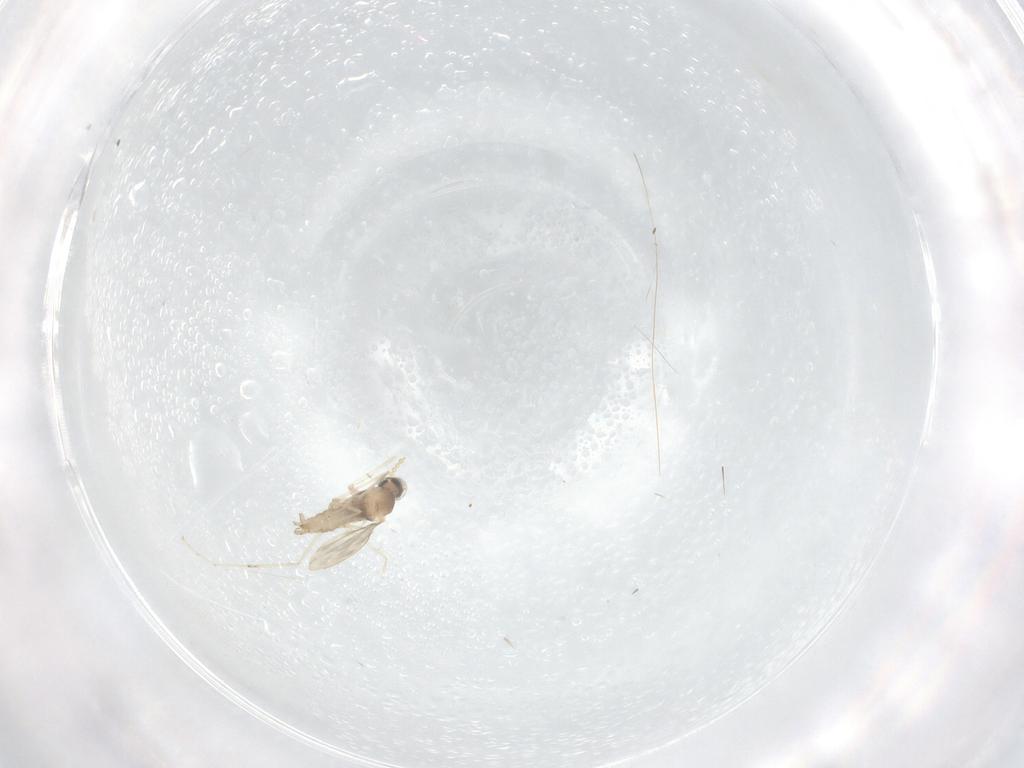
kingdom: Animalia
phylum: Arthropoda
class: Insecta
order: Diptera
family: Cecidomyiidae
